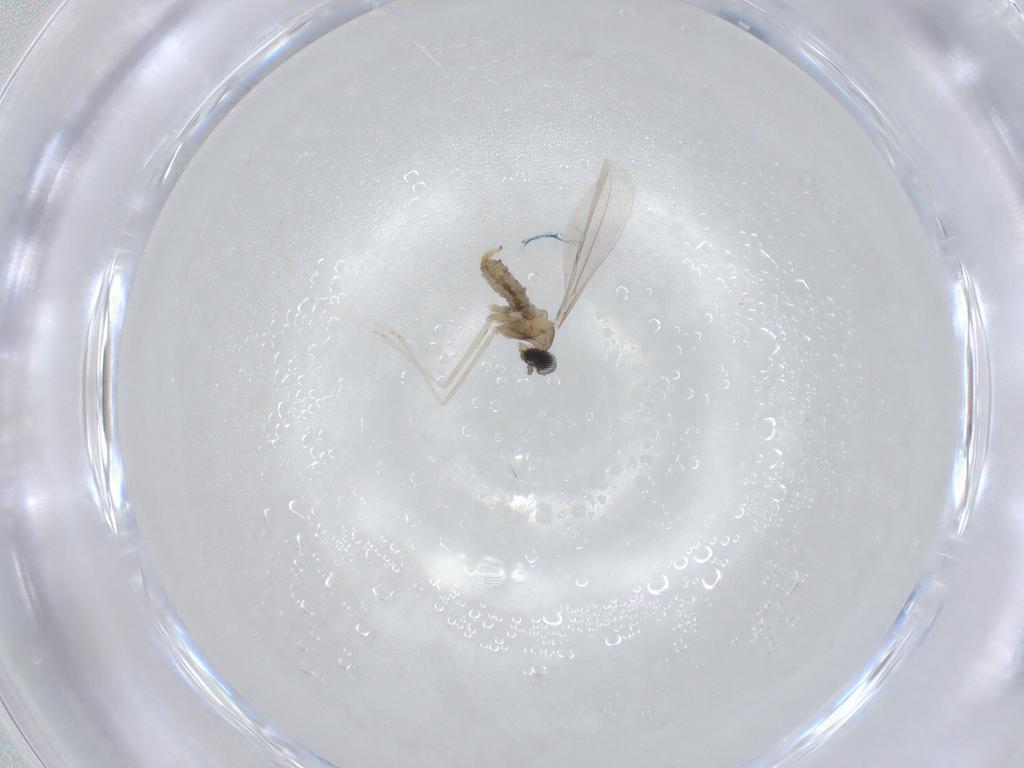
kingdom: Animalia
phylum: Arthropoda
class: Insecta
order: Diptera
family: Cecidomyiidae
